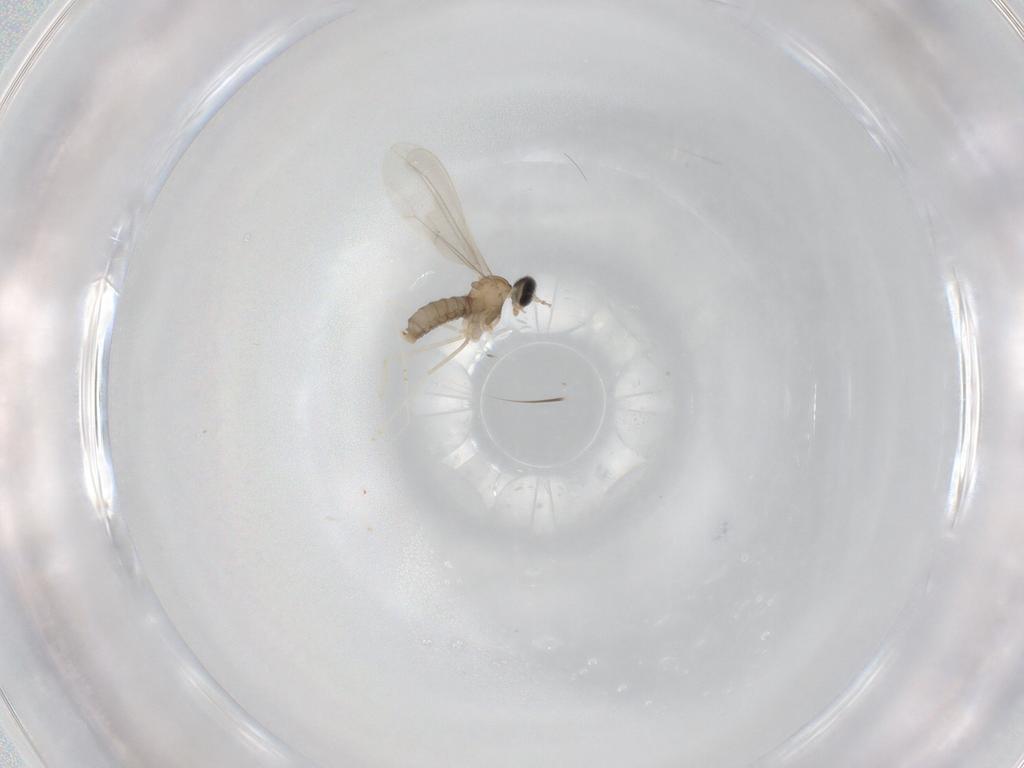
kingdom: Animalia
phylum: Arthropoda
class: Insecta
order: Diptera
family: Cecidomyiidae
